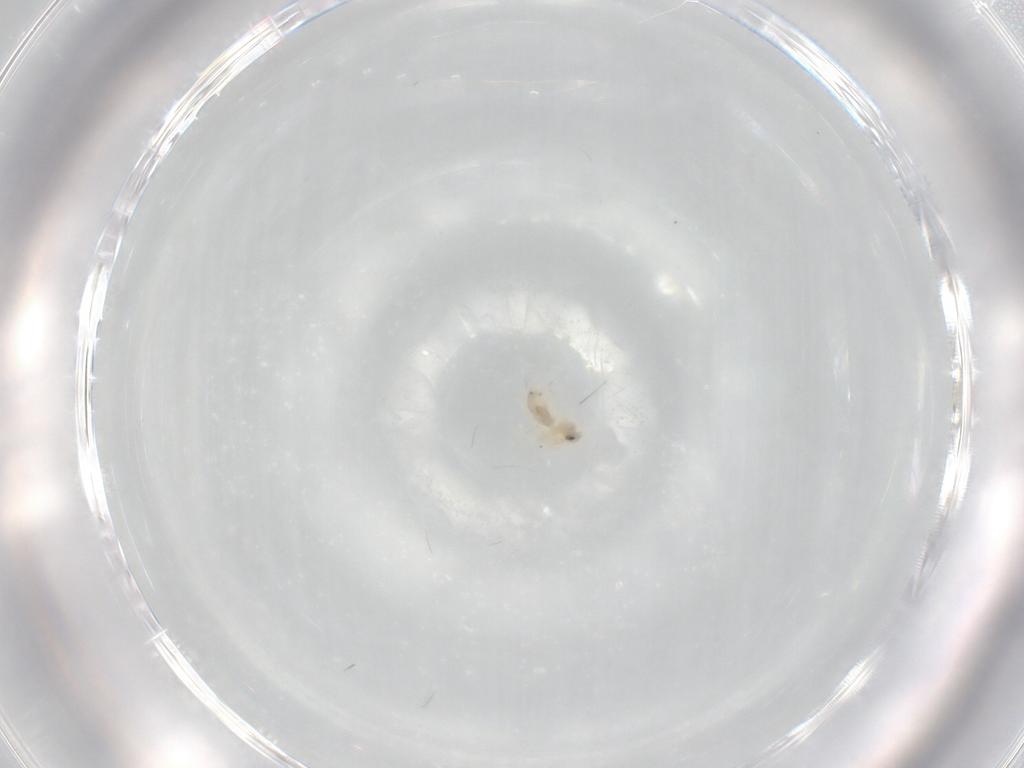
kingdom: Animalia
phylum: Arthropoda
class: Insecta
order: Hemiptera
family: Aleyrodidae
